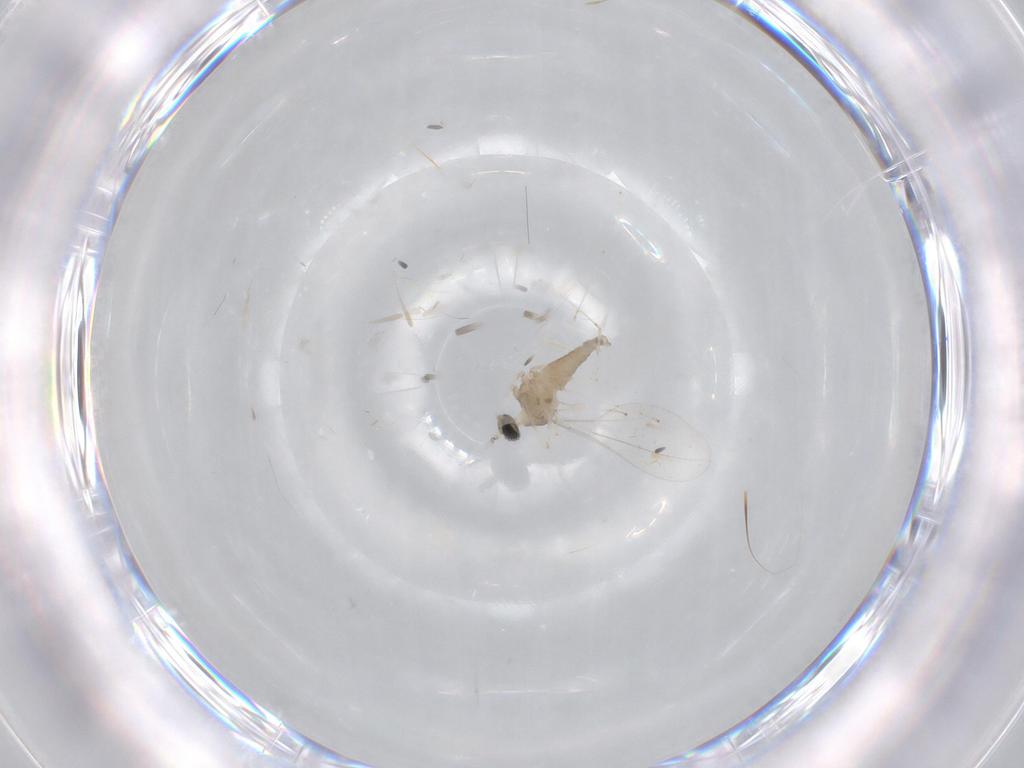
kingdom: Animalia
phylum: Arthropoda
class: Insecta
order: Diptera
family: Cecidomyiidae
